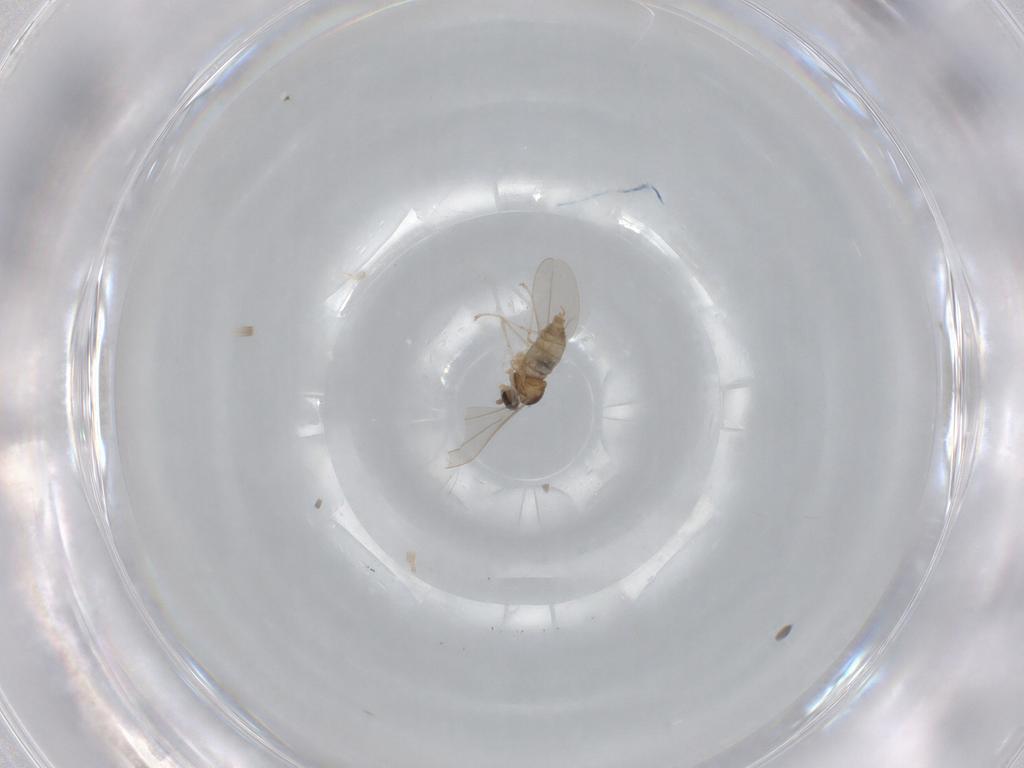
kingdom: Animalia
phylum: Arthropoda
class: Insecta
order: Diptera
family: Cecidomyiidae
